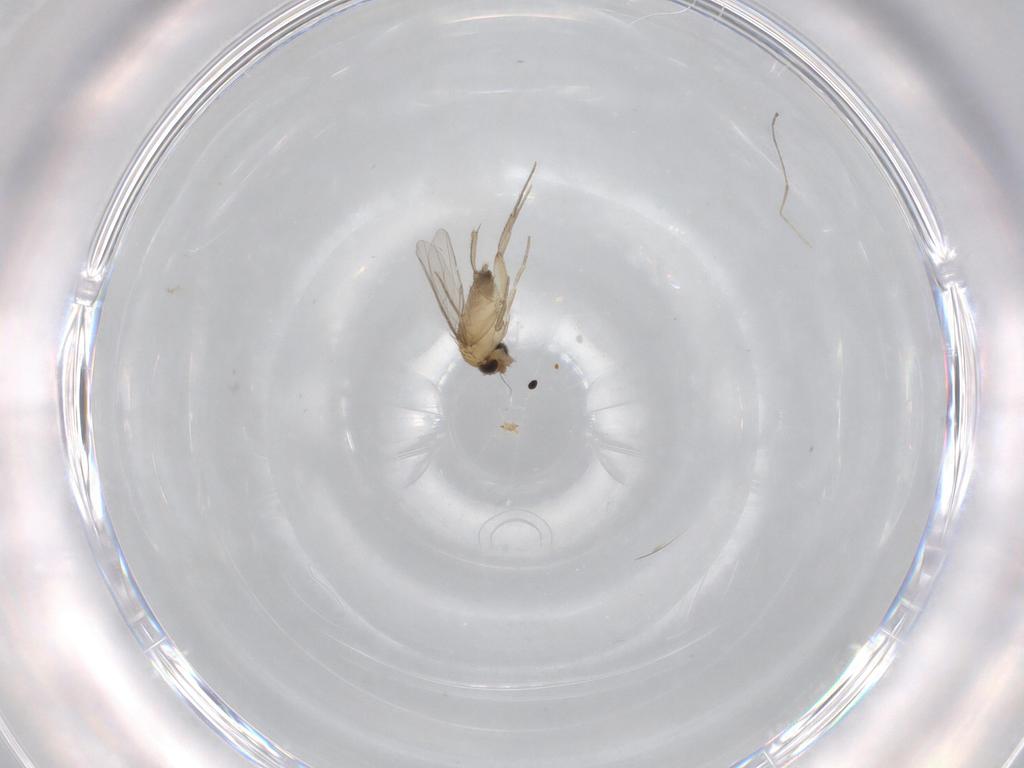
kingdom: Animalia
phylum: Arthropoda
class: Insecta
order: Diptera
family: Phoridae
